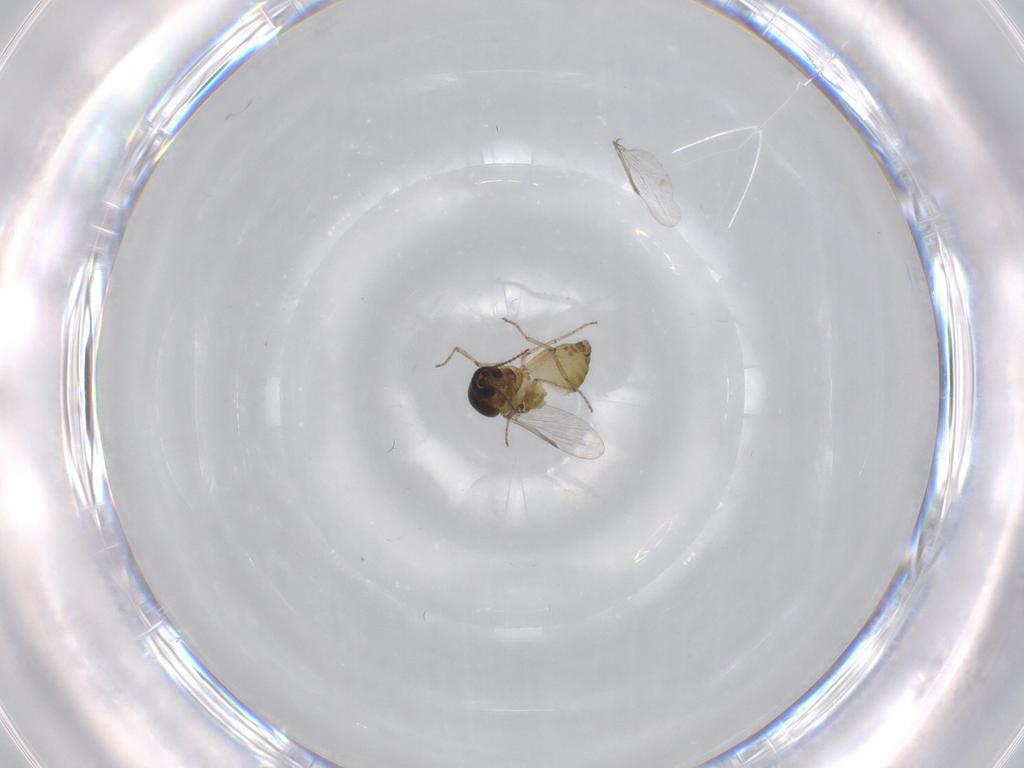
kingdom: Animalia
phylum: Arthropoda
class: Insecta
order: Diptera
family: Ceratopogonidae
